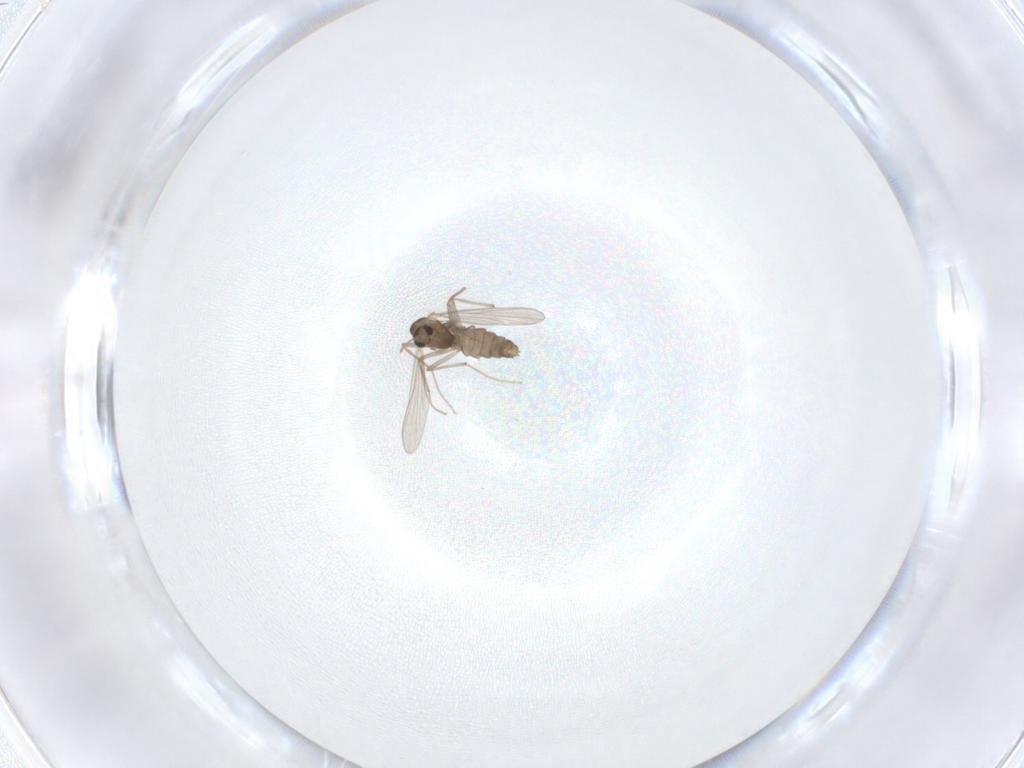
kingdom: Animalia
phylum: Arthropoda
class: Insecta
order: Diptera
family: Chironomidae
